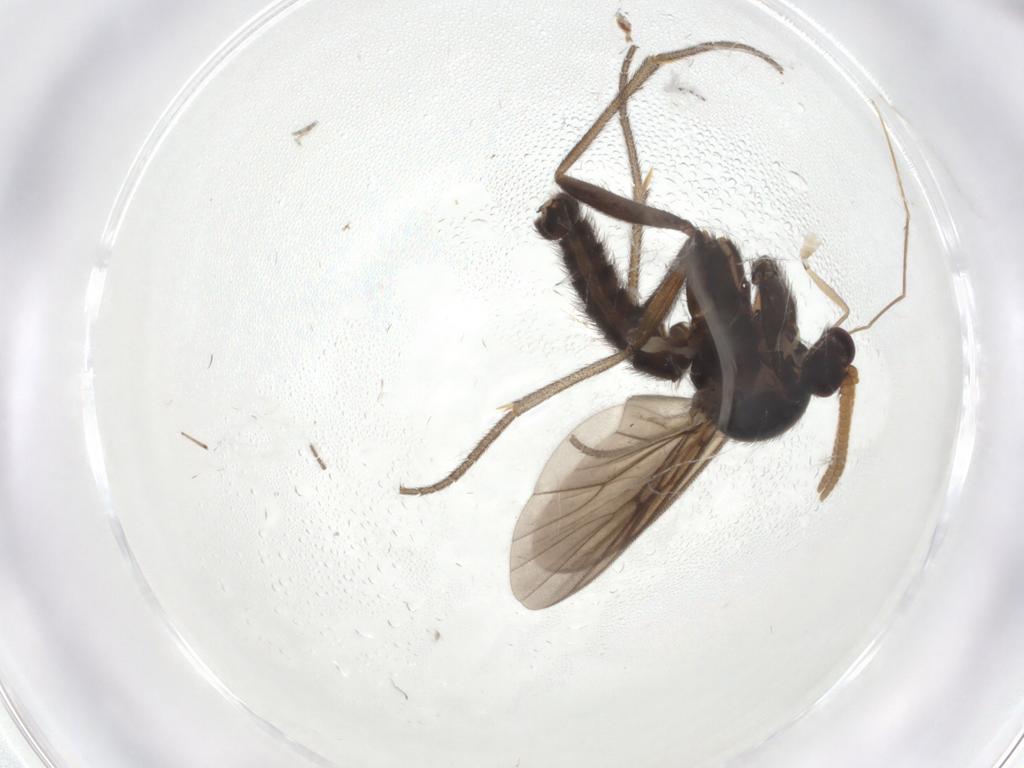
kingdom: Animalia
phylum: Arthropoda
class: Insecta
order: Diptera
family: Mycetophilidae
